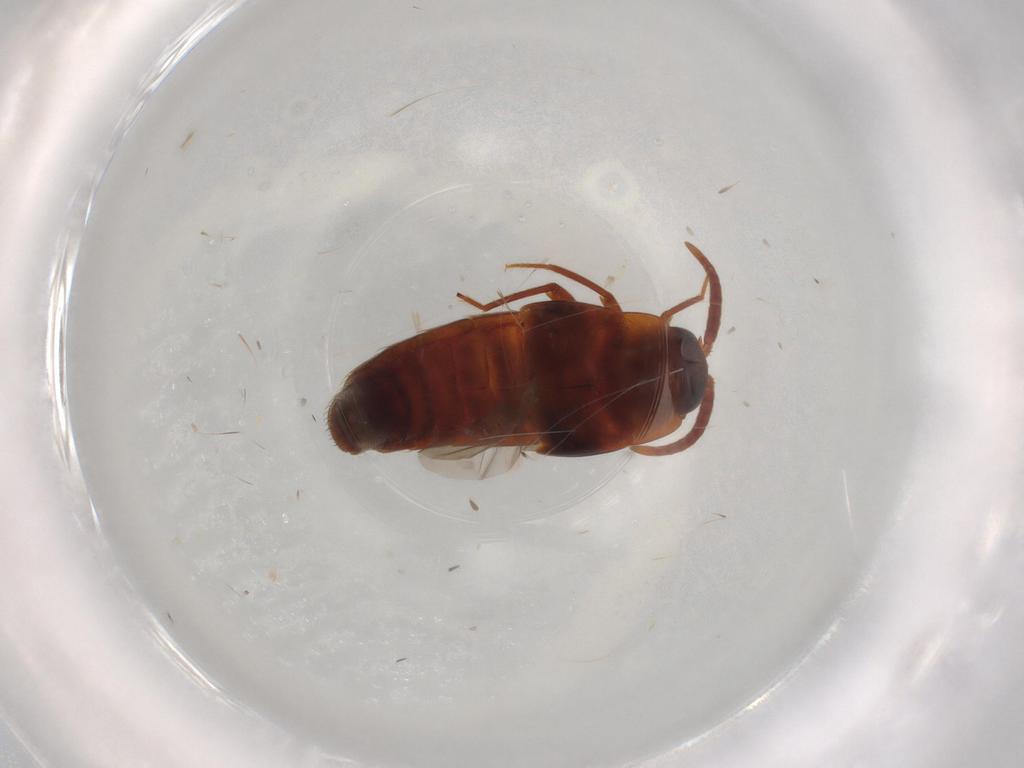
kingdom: Animalia
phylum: Arthropoda
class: Insecta
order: Coleoptera
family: Staphylinidae
